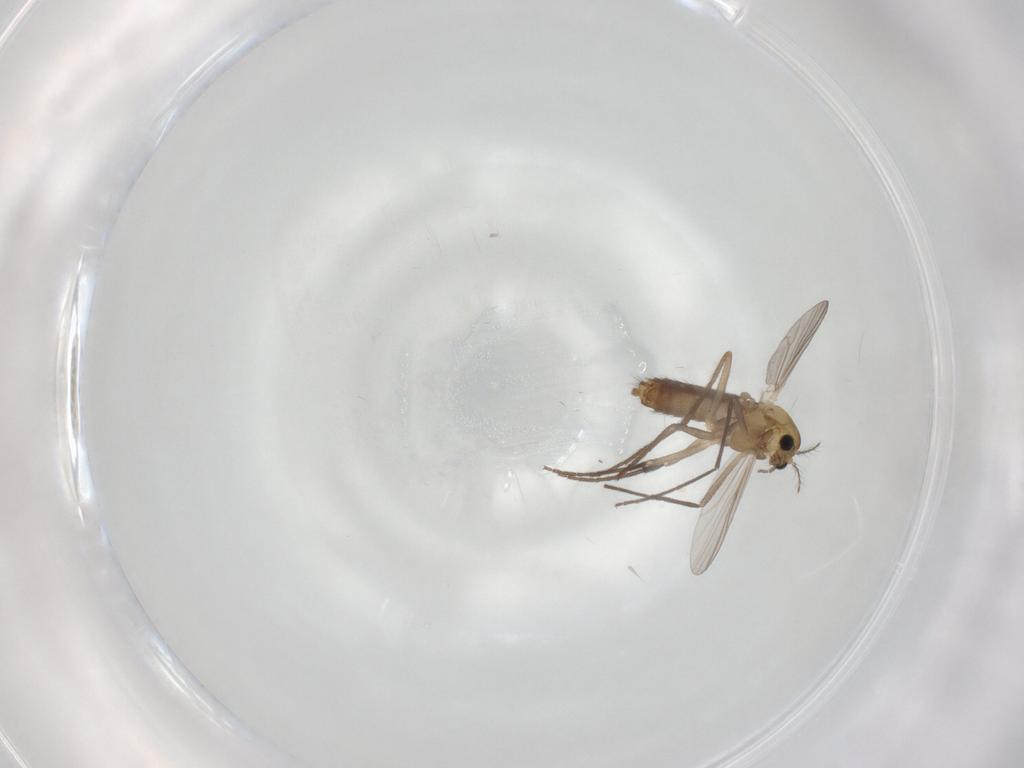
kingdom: Animalia
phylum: Arthropoda
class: Insecta
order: Diptera
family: Chironomidae
